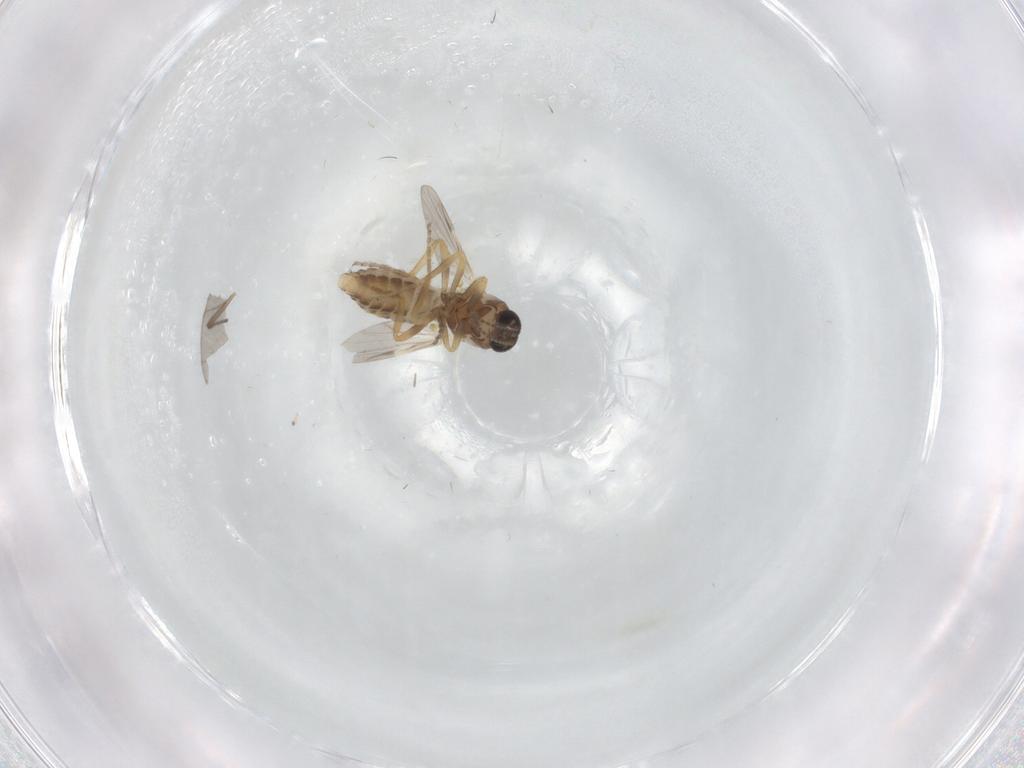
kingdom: Animalia
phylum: Arthropoda
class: Insecta
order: Diptera
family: Ceratopogonidae
